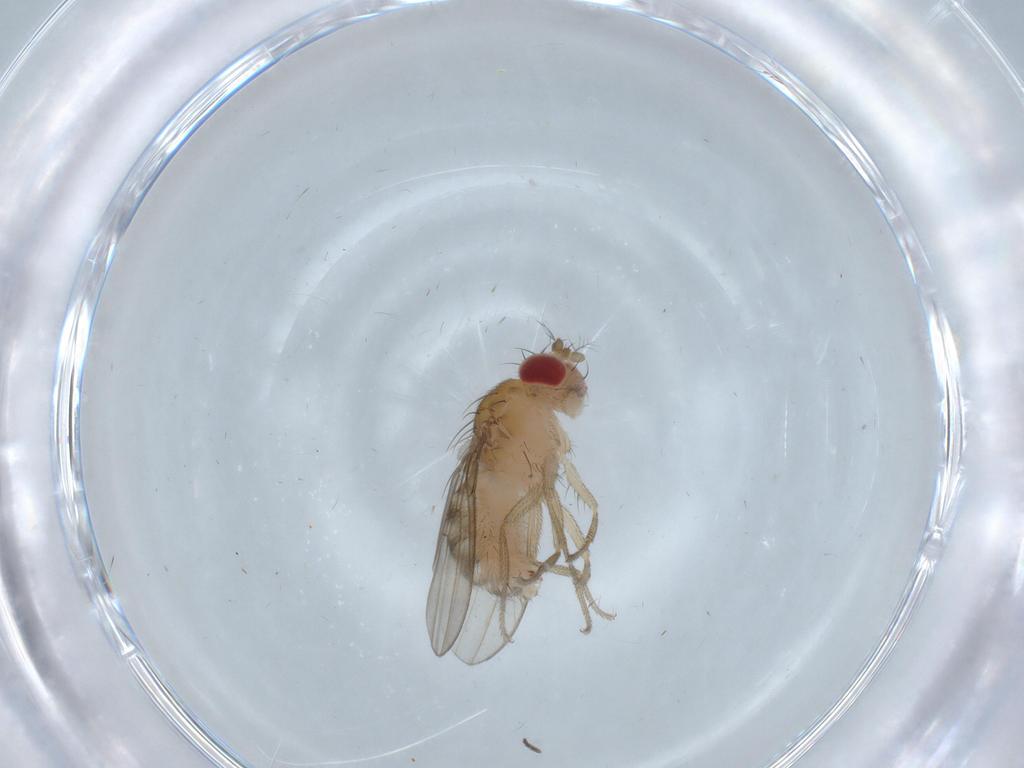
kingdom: Animalia
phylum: Arthropoda
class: Insecta
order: Diptera
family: Drosophilidae
